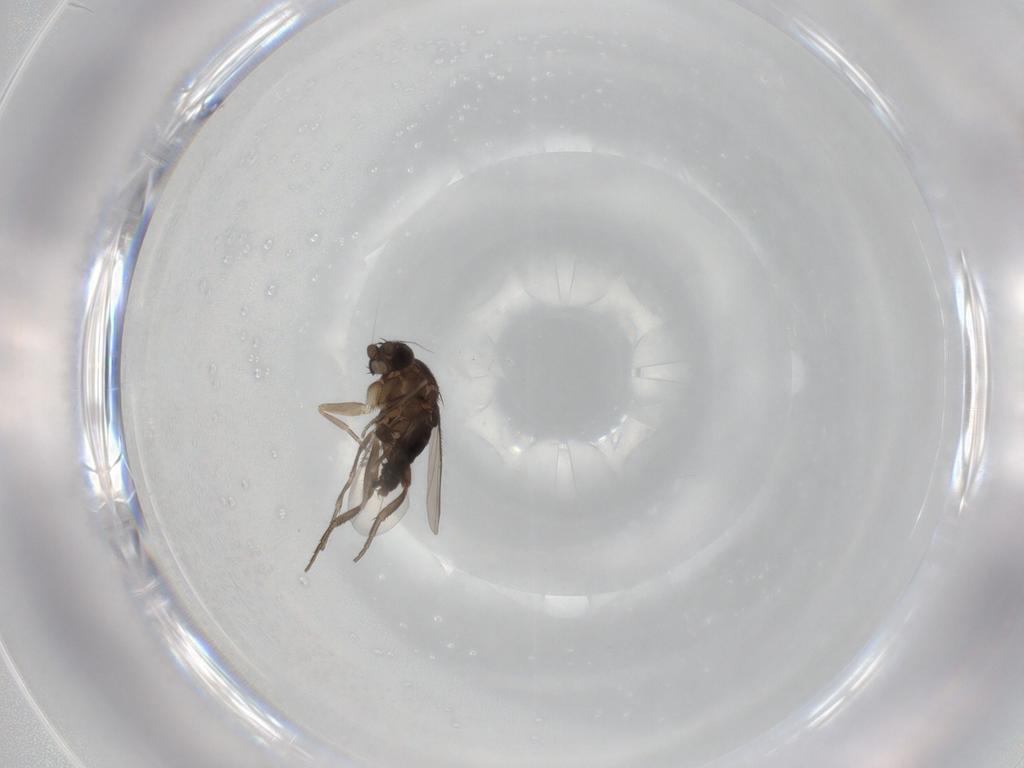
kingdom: Animalia
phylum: Arthropoda
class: Insecta
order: Diptera
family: Phoridae
